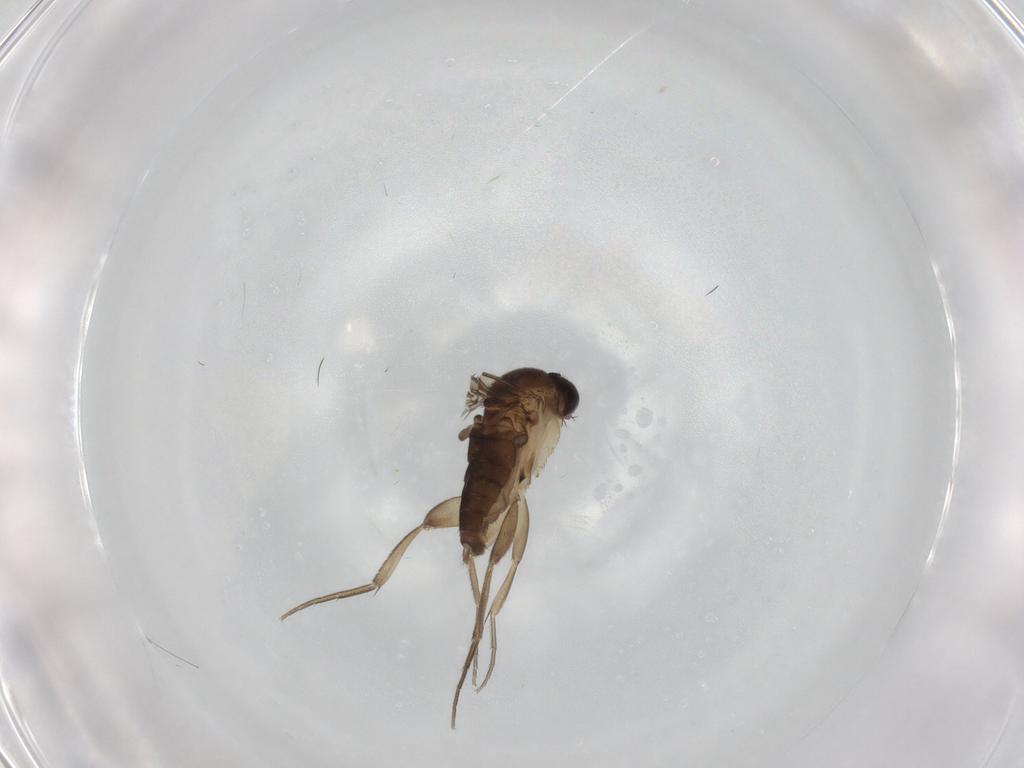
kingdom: Animalia
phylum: Arthropoda
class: Insecta
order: Diptera
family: Phoridae
